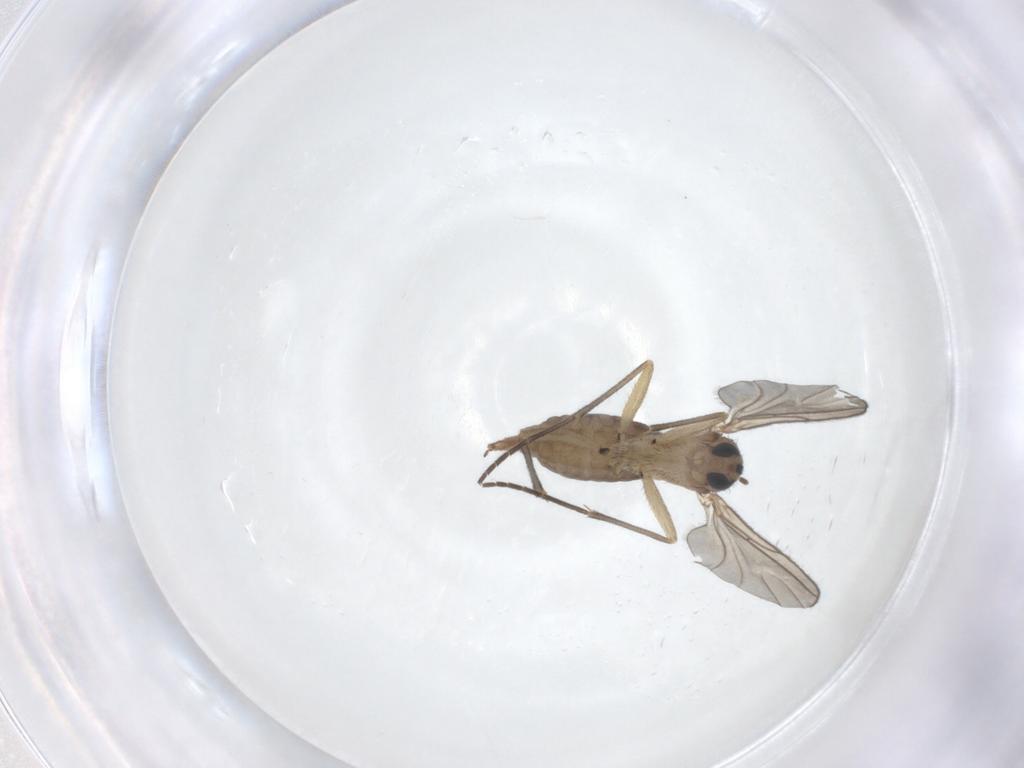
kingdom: Animalia
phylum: Arthropoda
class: Insecta
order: Diptera
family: Sciaridae
